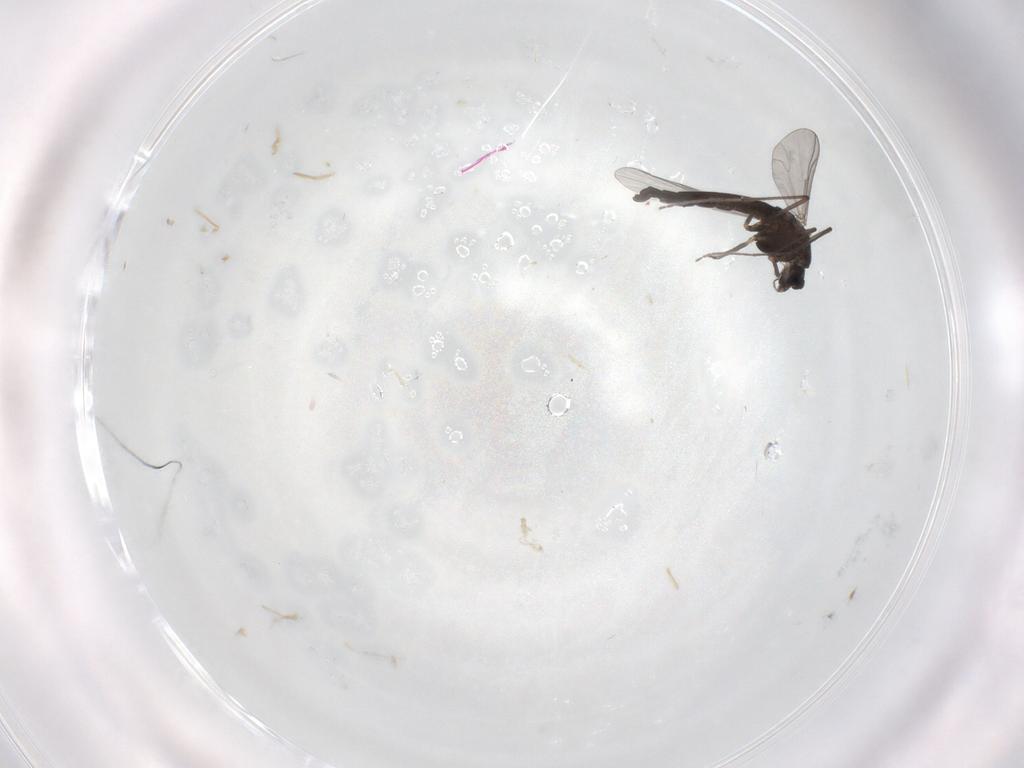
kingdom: Animalia
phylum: Arthropoda
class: Insecta
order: Diptera
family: Chironomidae
